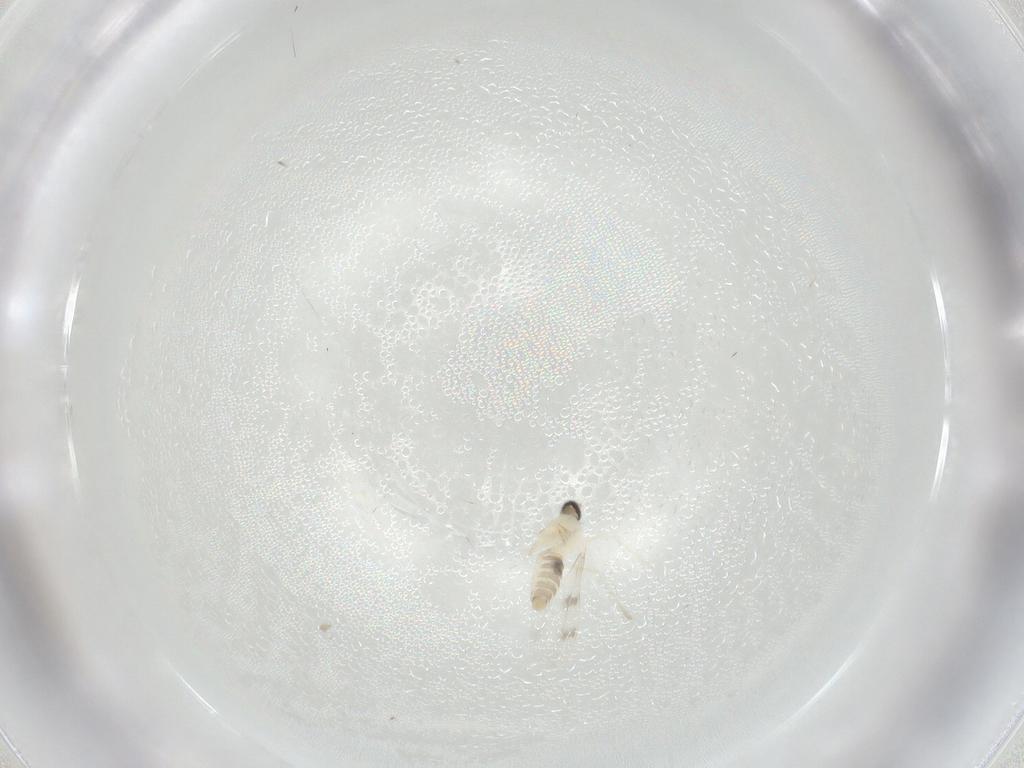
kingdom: Animalia
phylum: Arthropoda
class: Insecta
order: Diptera
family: Cecidomyiidae
